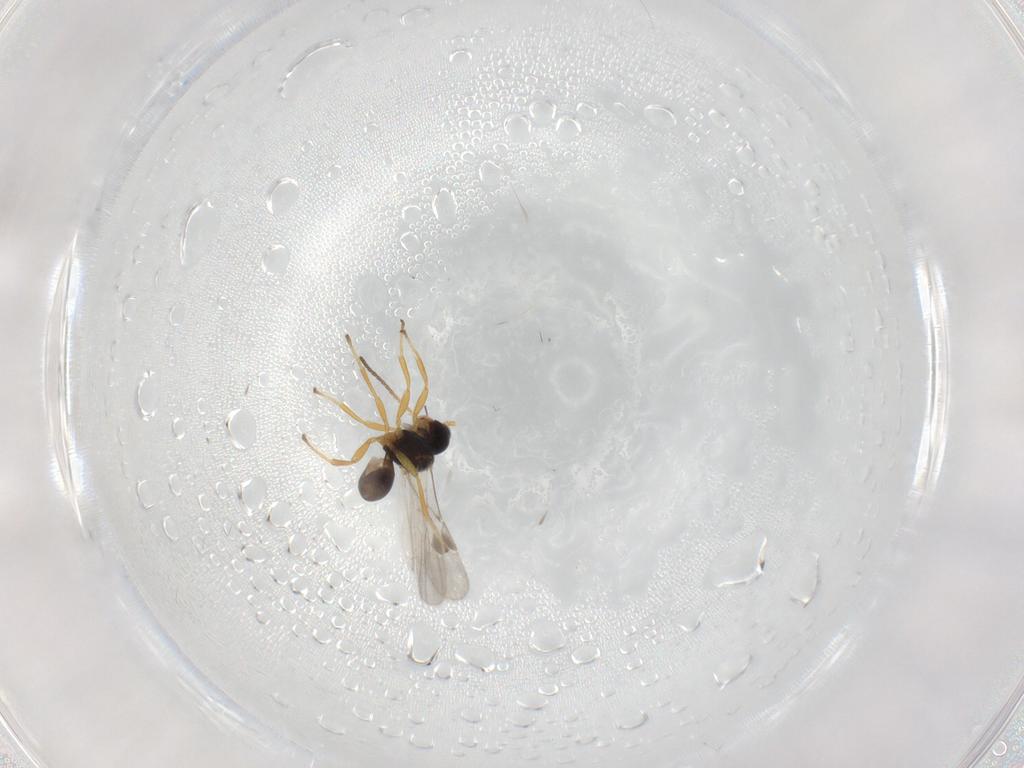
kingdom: Animalia
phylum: Arthropoda
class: Insecta
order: Hymenoptera
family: Braconidae
